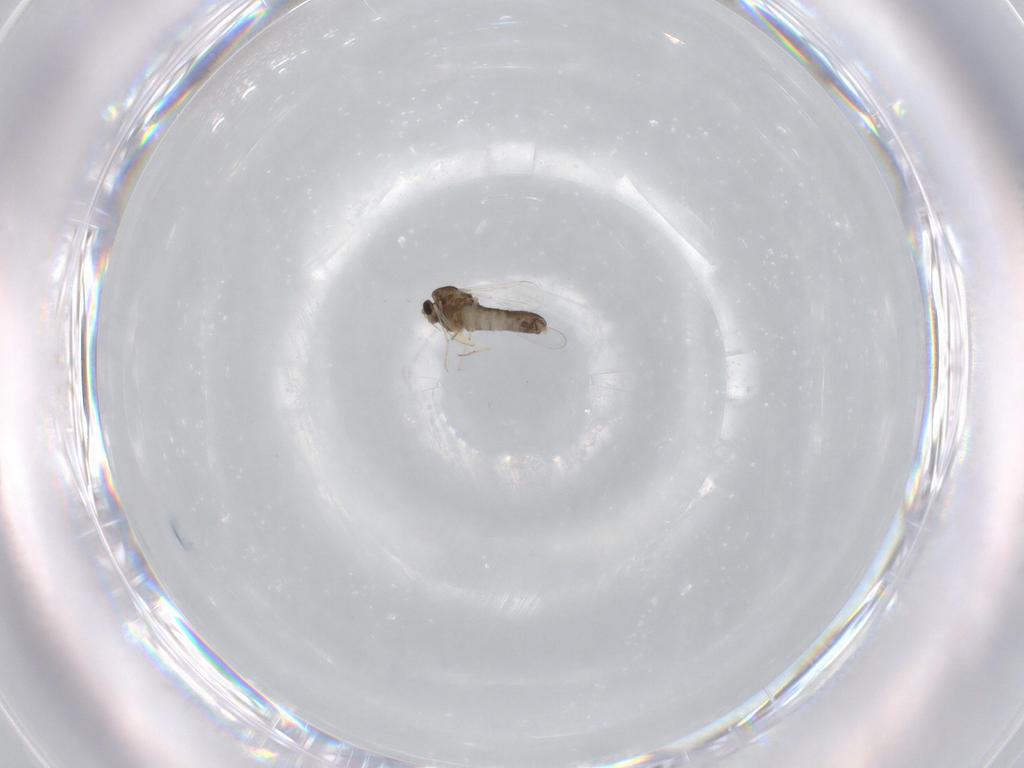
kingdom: Animalia
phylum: Arthropoda
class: Insecta
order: Diptera
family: Chironomidae
